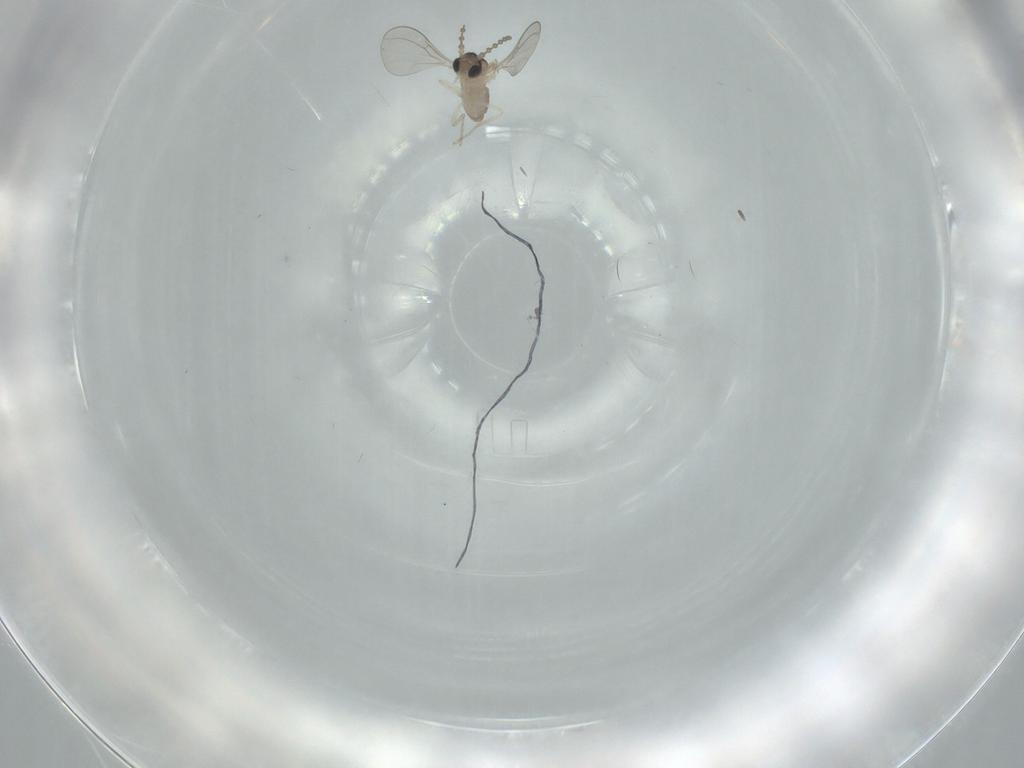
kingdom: Animalia
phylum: Arthropoda
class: Insecta
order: Diptera
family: Cecidomyiidae
